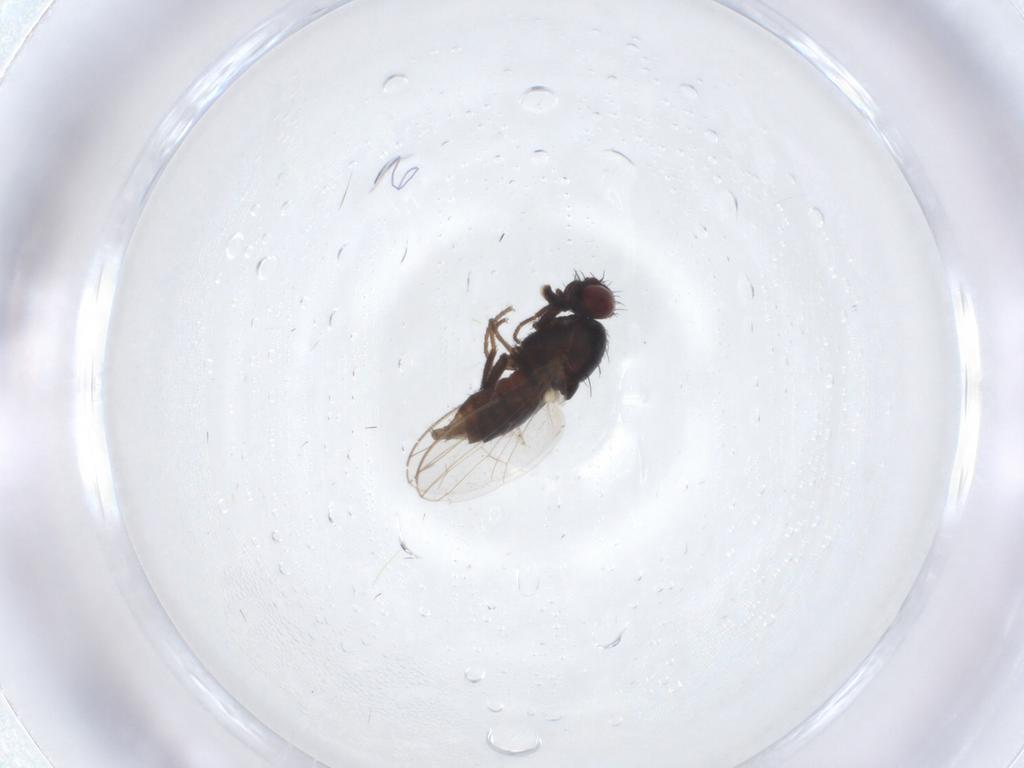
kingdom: Animalia
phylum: Arthropoda
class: Insecta
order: Diptera
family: Carnidae
